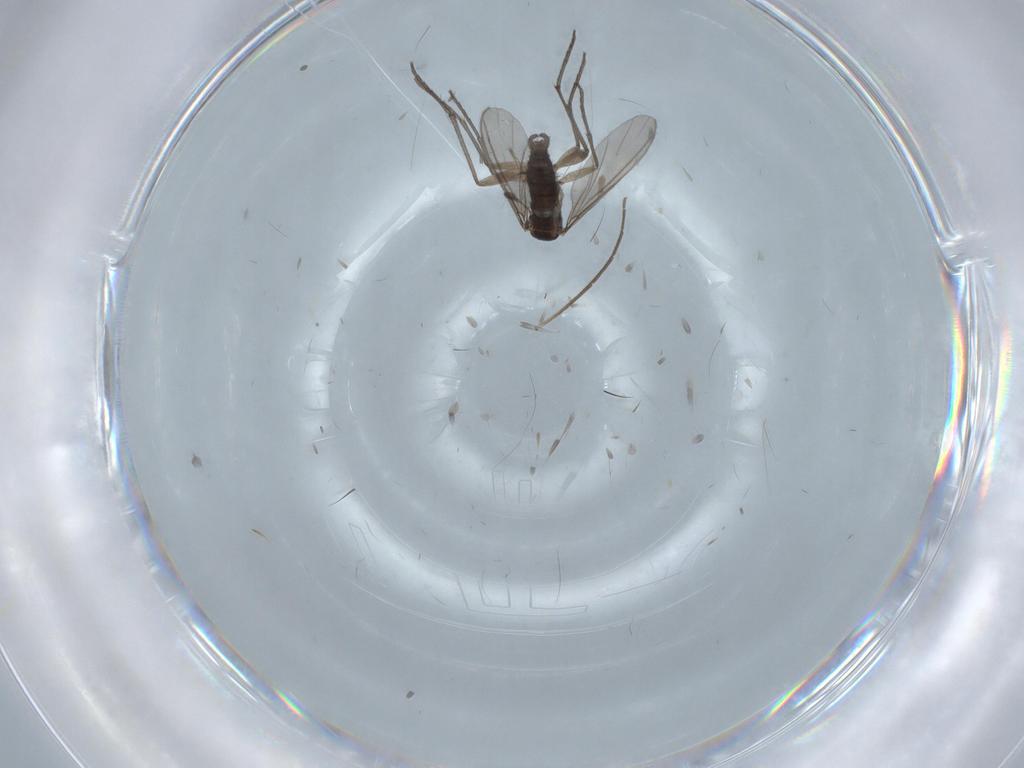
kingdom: Animalia
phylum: Arthropoda
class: Insecta
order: Diptera
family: Sciaridae
